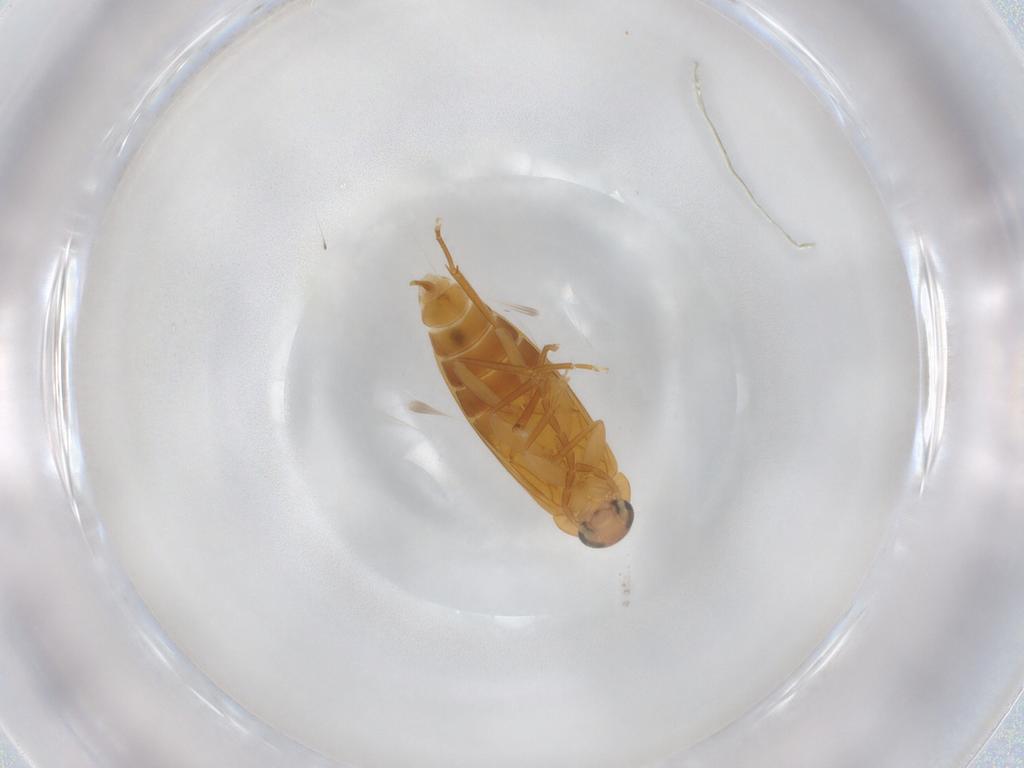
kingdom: Animalia
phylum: Arthropoda
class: Insecta
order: Coleoptera
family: Scraptiidae
